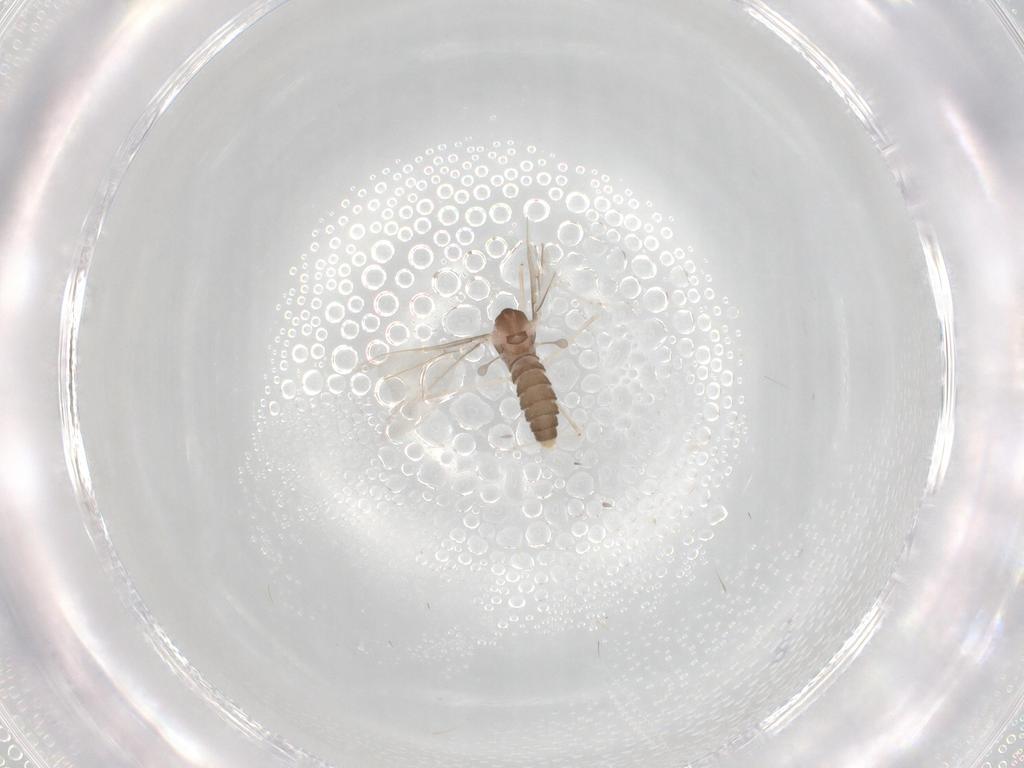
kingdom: Animalia
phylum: Arthropoda
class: Insecta
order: Diptera
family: Cecidomyiidae
